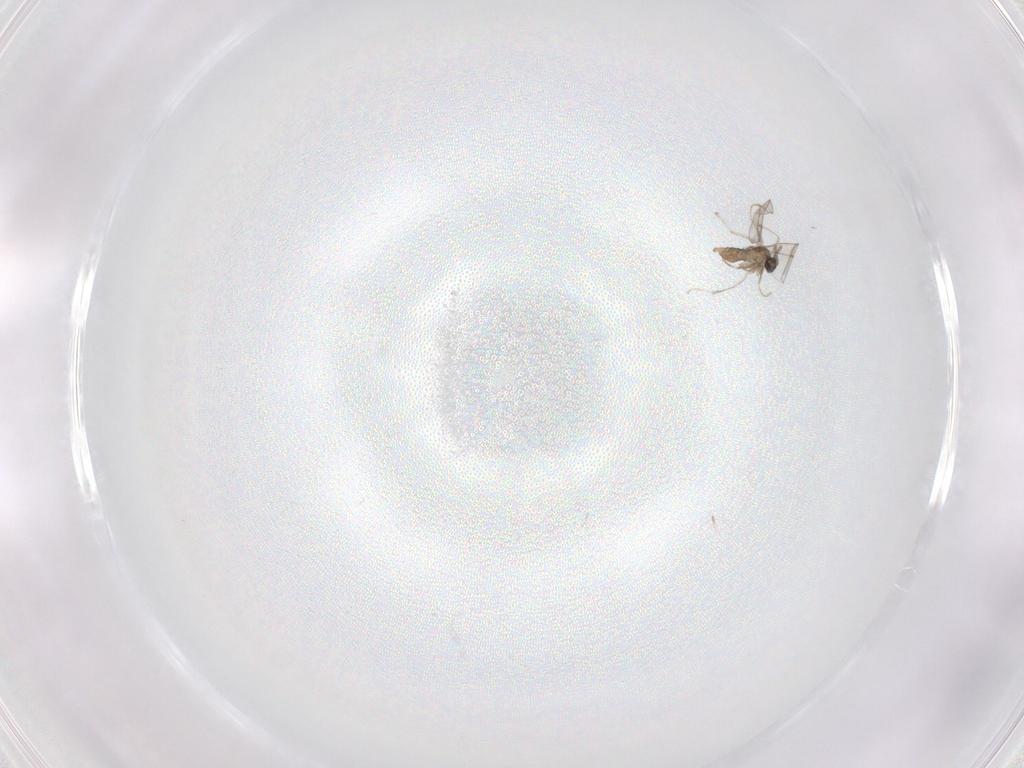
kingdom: Animalia
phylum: Arthropoda
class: Insecta
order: Diptera
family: Cecidomyiidae
